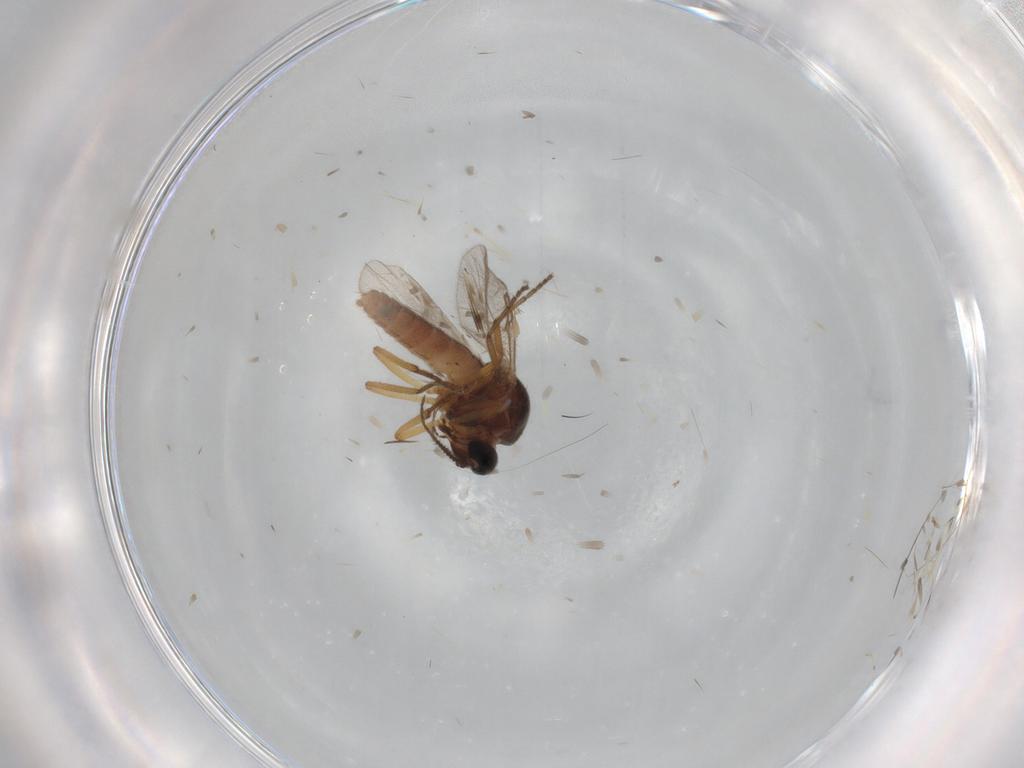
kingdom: Animalia
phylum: Arthropoda
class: Insecta
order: Diptera
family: Ceratopogonidae
